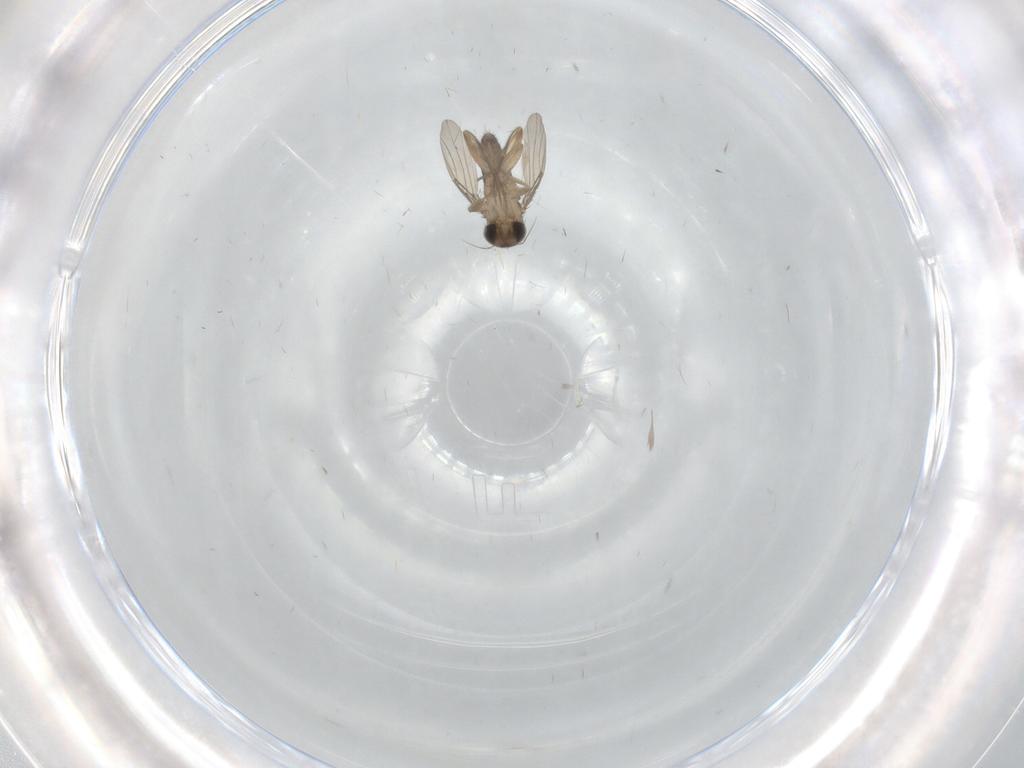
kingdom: Animalia
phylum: Arthropoda
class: Insecta
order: Diptera
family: Phoridae
